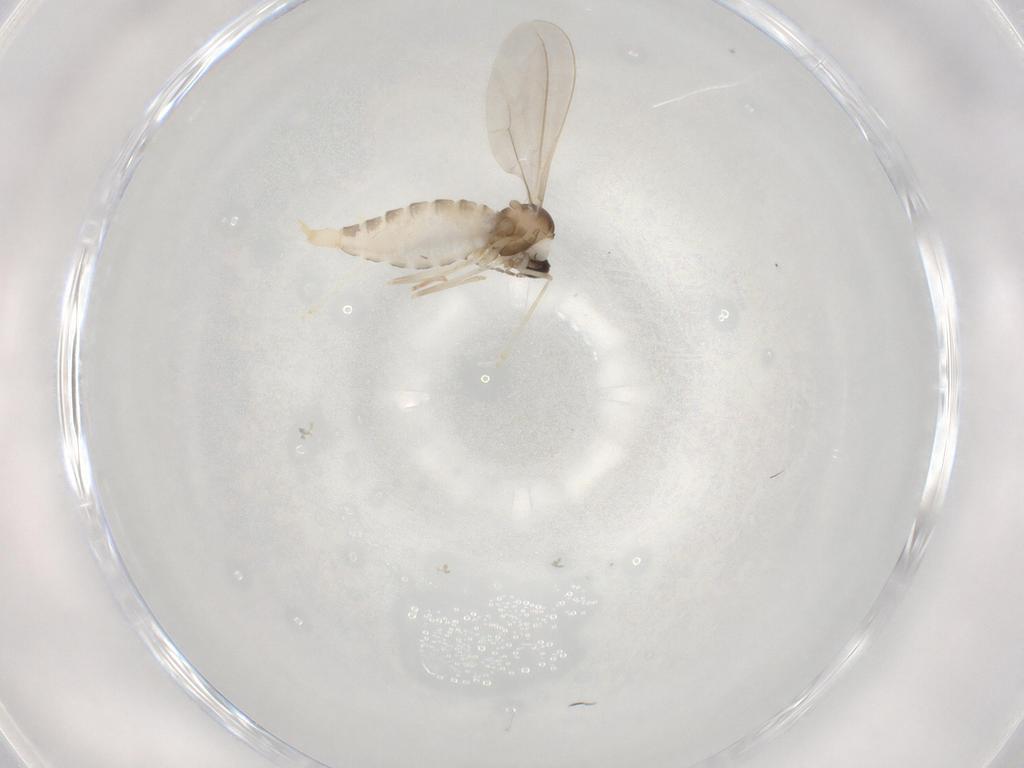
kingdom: Animalia
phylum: Arthropoda
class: Insecta
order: Diptera
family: Cecidomyiidae
